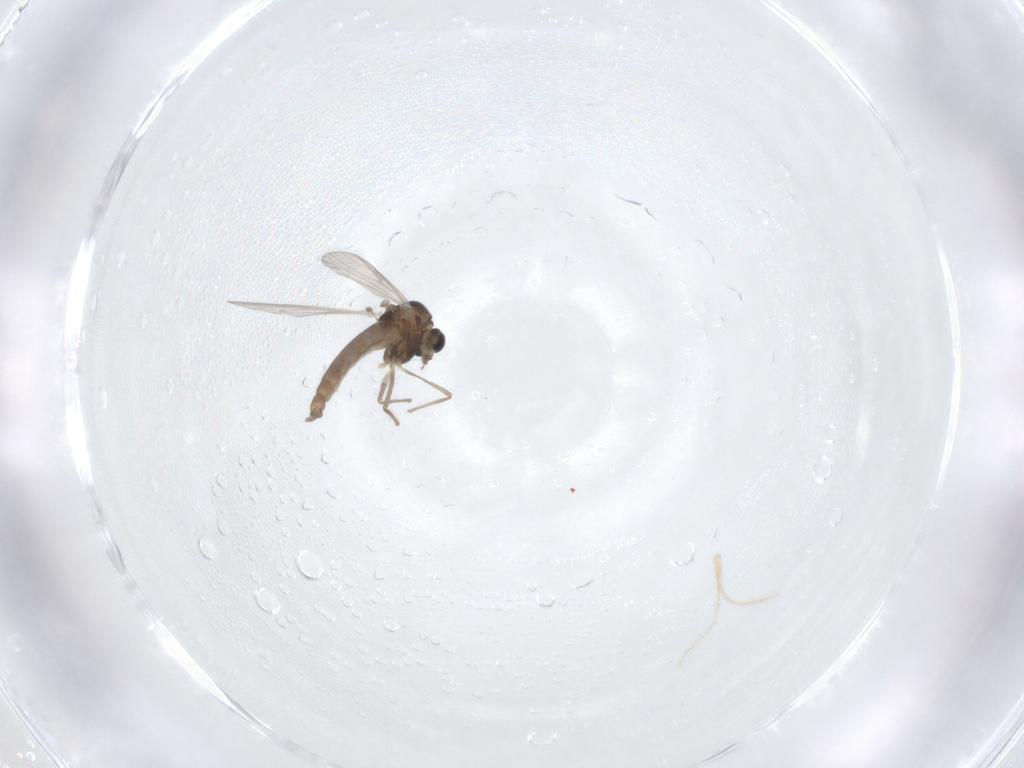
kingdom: Animalia
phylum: Arthropoda
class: Insecta
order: Diptera
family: Chironomidae
